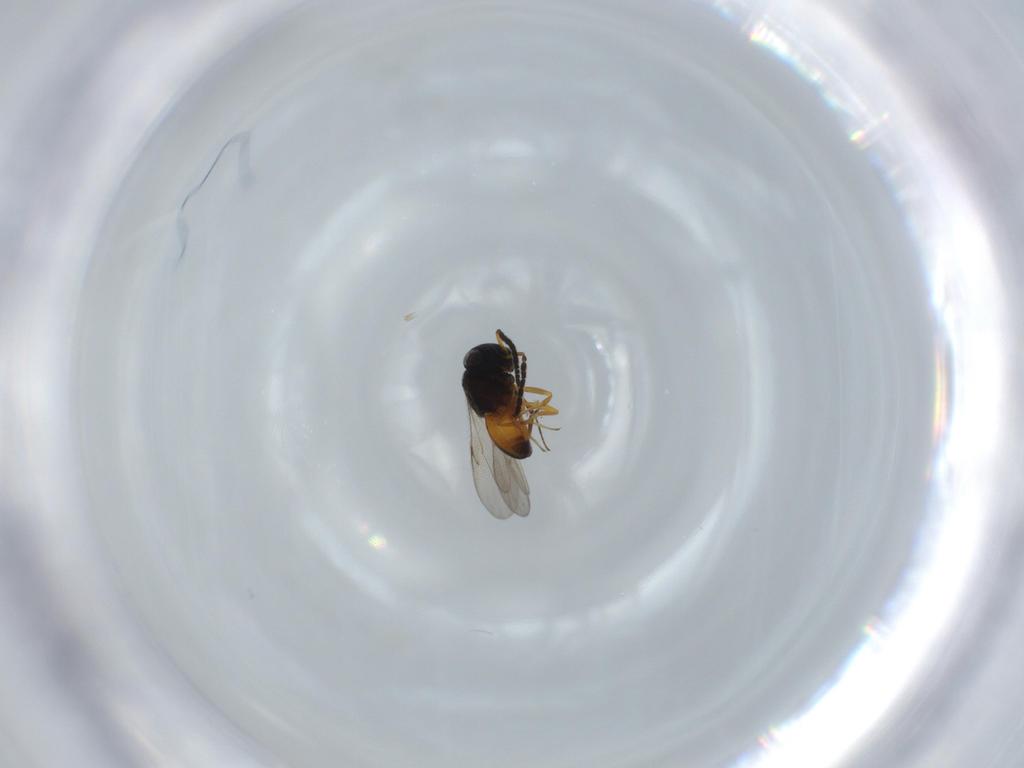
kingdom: Animalia
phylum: Arthropoda
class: Insecta
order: Hymenoptera
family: Scelionidae
